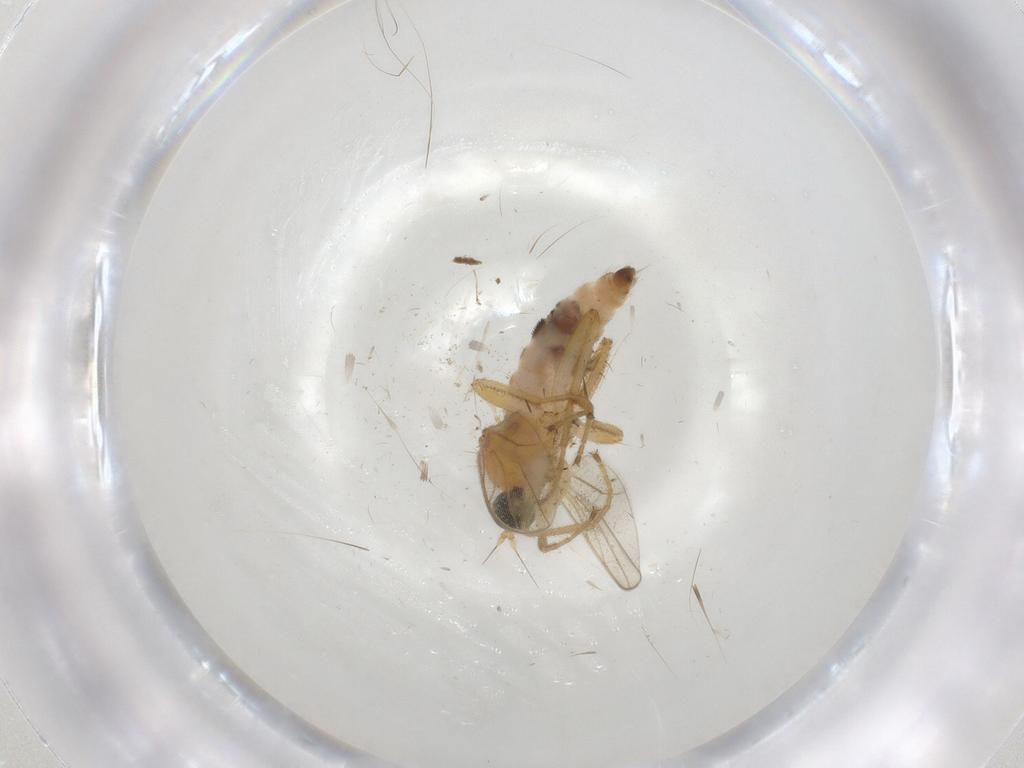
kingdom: Animalia
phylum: Arthropoda
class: Insecta
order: Diptera
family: Hybotidae
